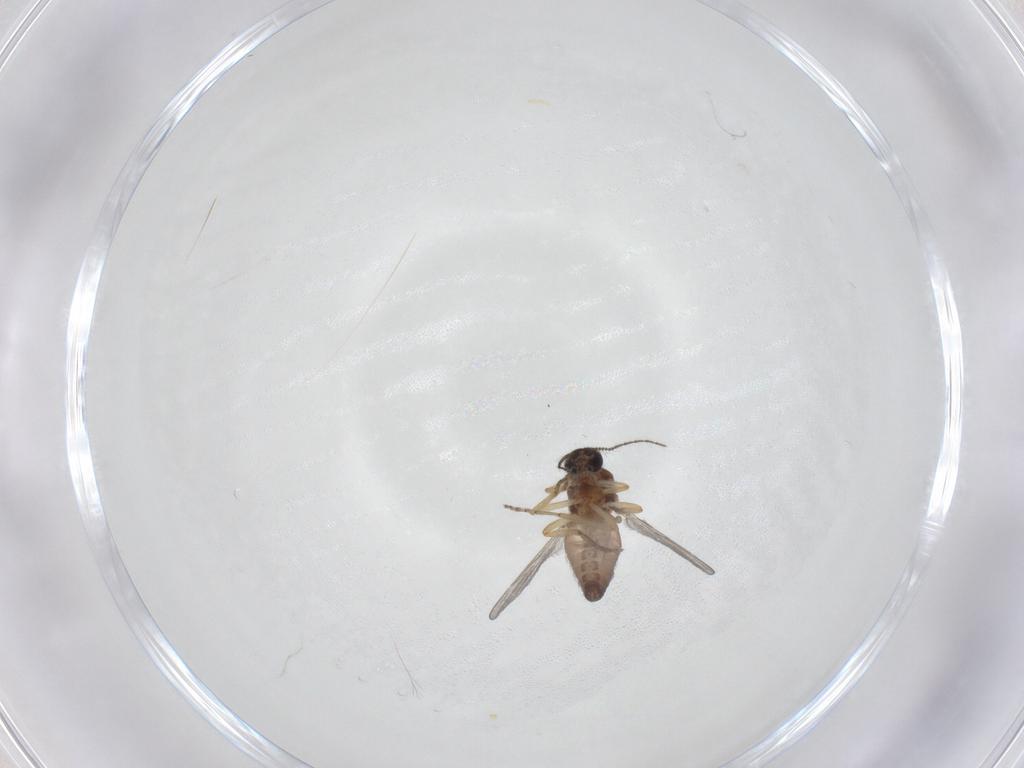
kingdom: Animalia
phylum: Arthropoda
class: Insecta
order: Diptera
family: Ceratopogonidae
